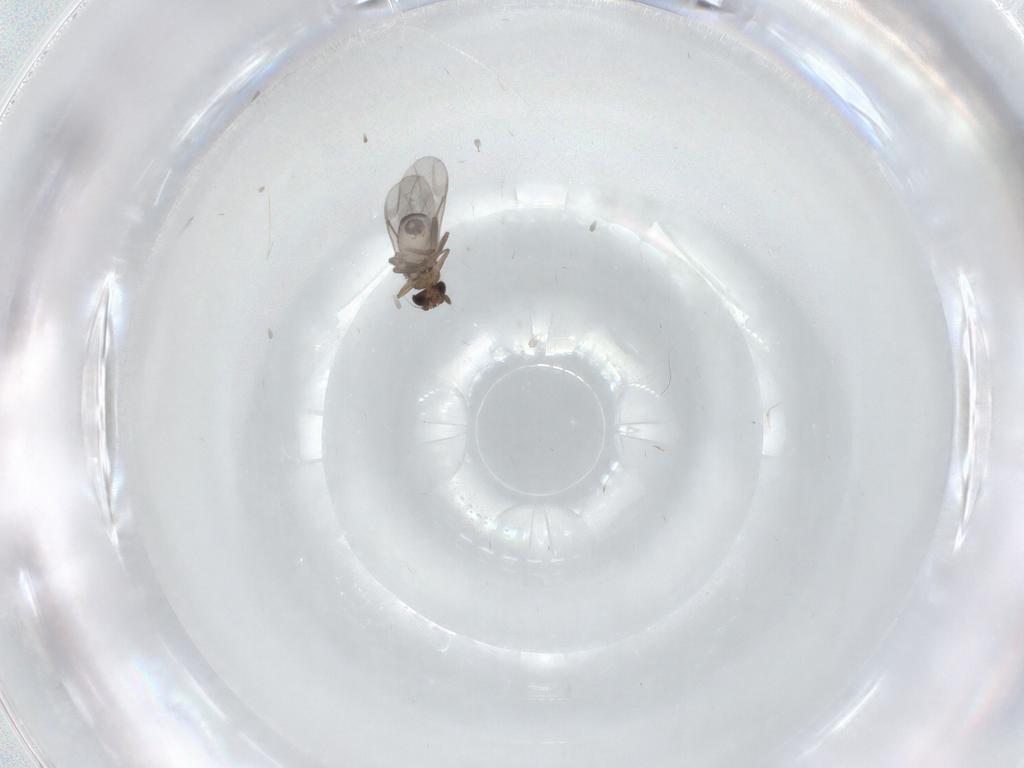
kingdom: Animalia
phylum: Arthropoda
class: Insecta
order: Diptera
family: Phoridae
